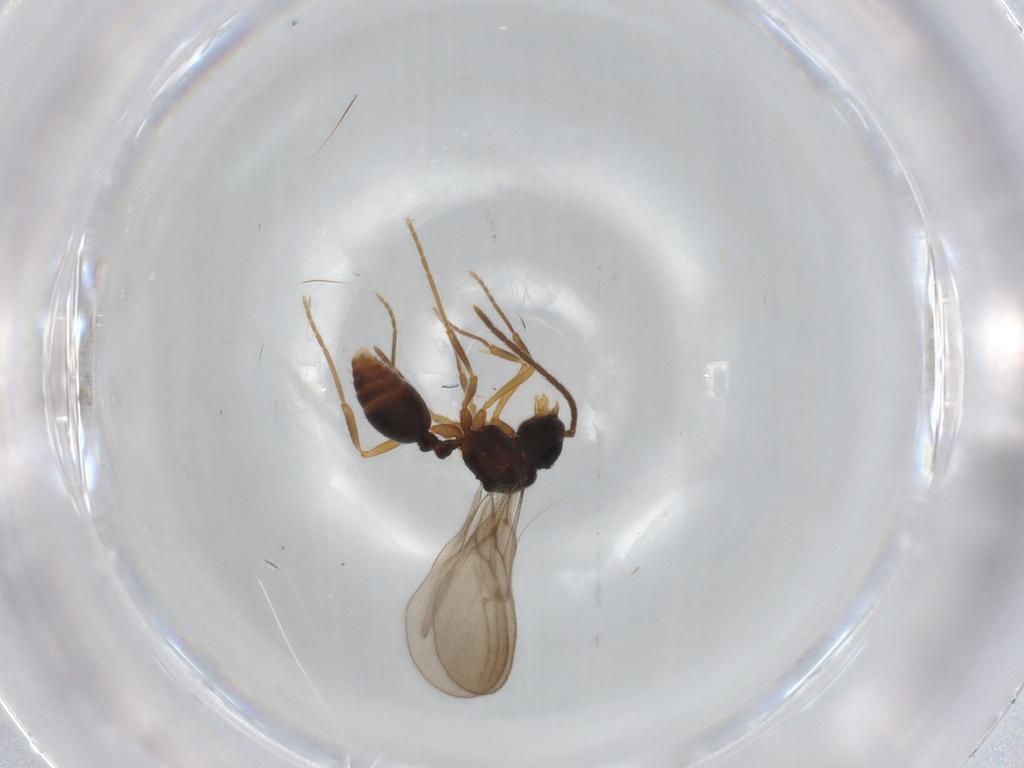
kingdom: Animalia
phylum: Arthropoda
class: Insecta
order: Hymenoptera
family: Formicidae
